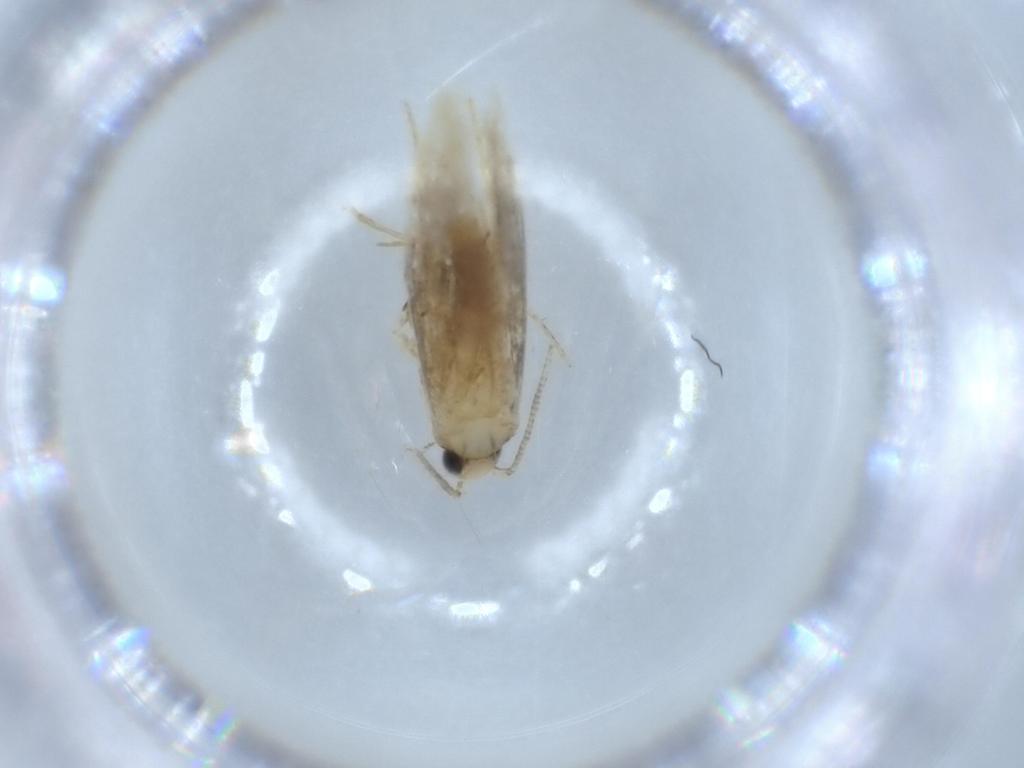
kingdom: Animalia
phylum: Arthropoda
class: Insecta
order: Lepidoptera
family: Tineidae
